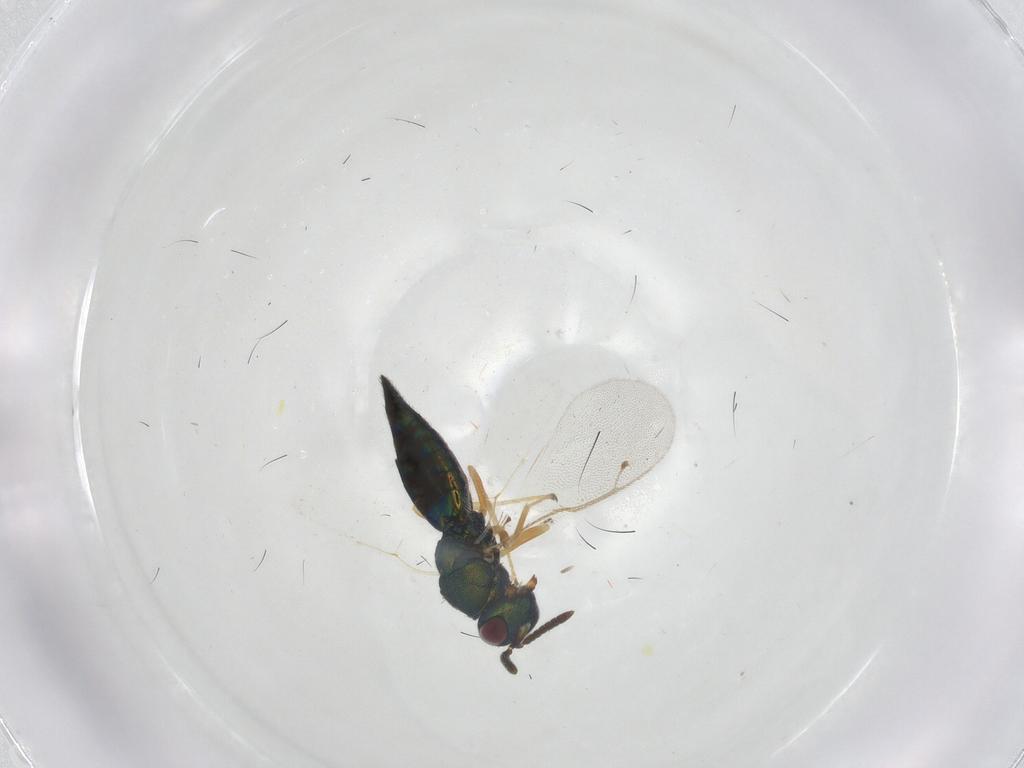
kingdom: Animalia
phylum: Arthropoda
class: Insecta
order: Hymenoptera
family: Pteromalidae
